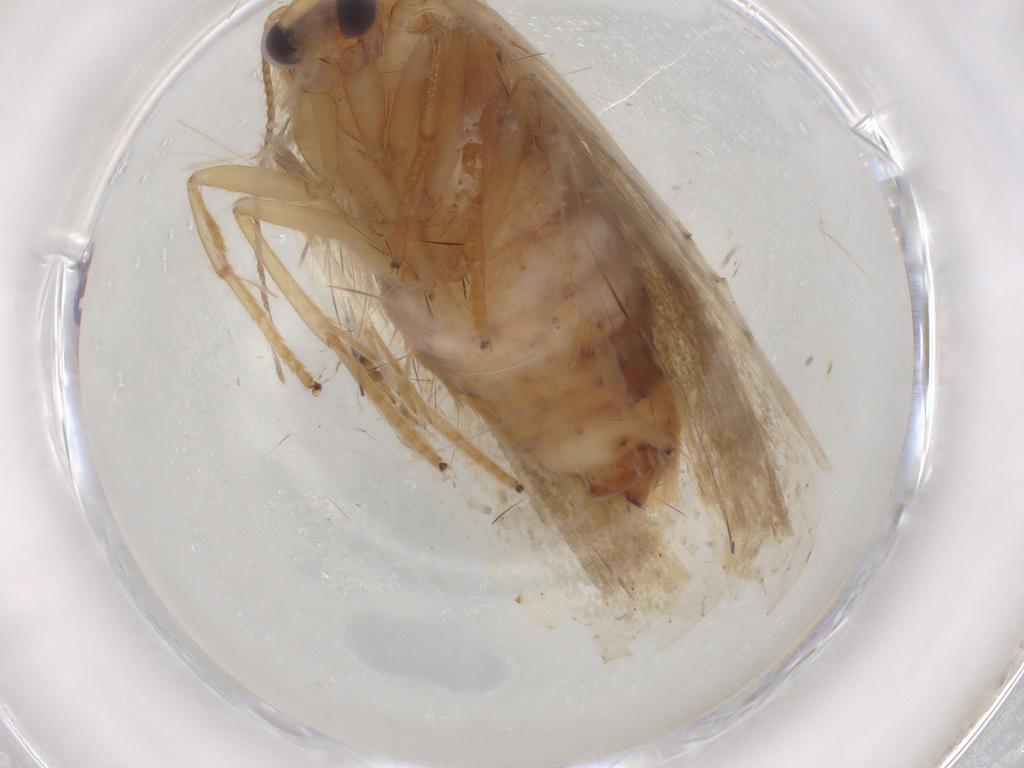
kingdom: Animalia
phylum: Arthropoda
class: Insecta
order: Lepidoptera
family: Erebidae
